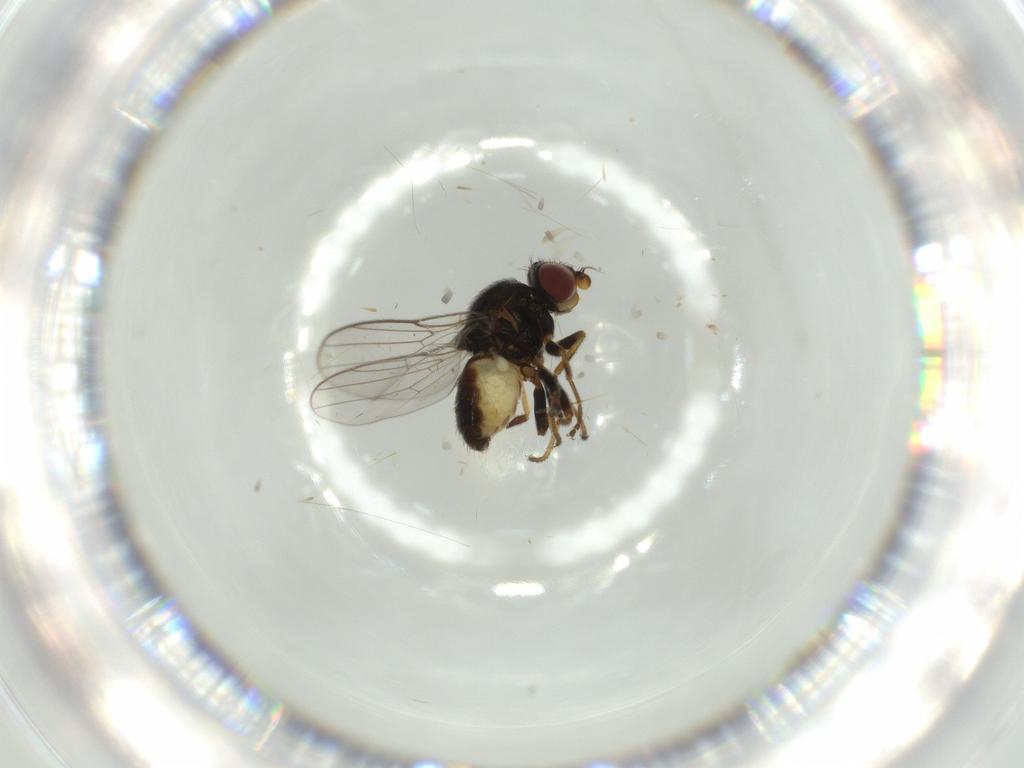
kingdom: Animalia
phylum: Arthropoda
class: Insecta
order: Diptera
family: Chloropidae
